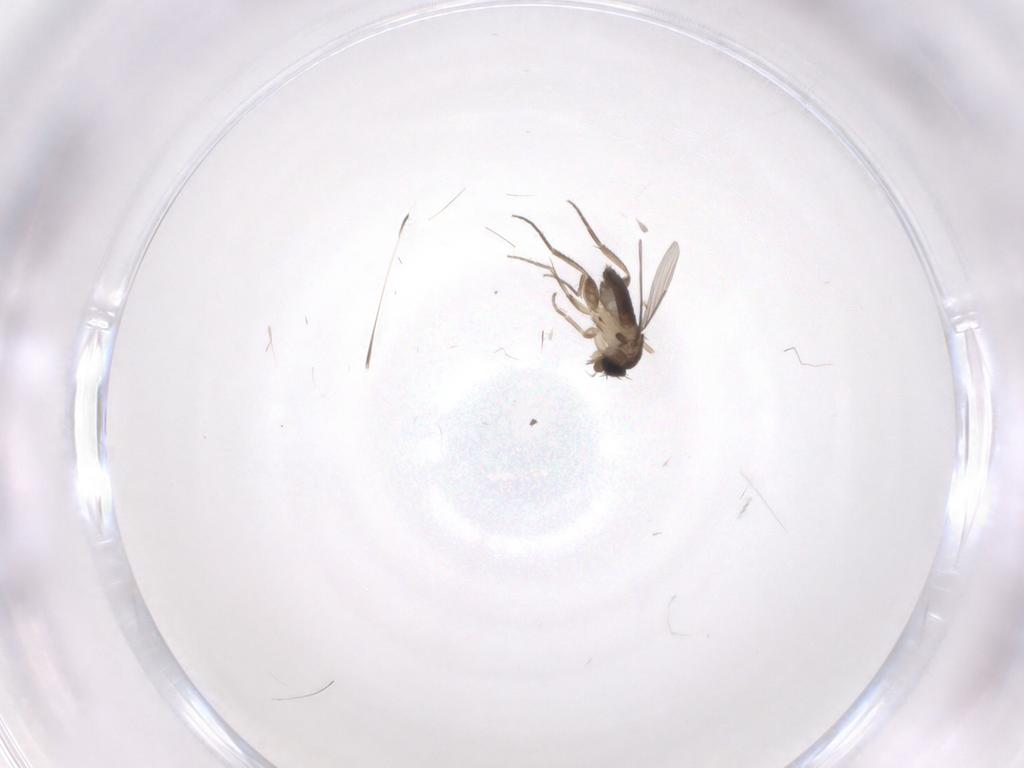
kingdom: Animalia
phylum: Arthropoda
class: Insecta
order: Diptera
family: Phoridae
